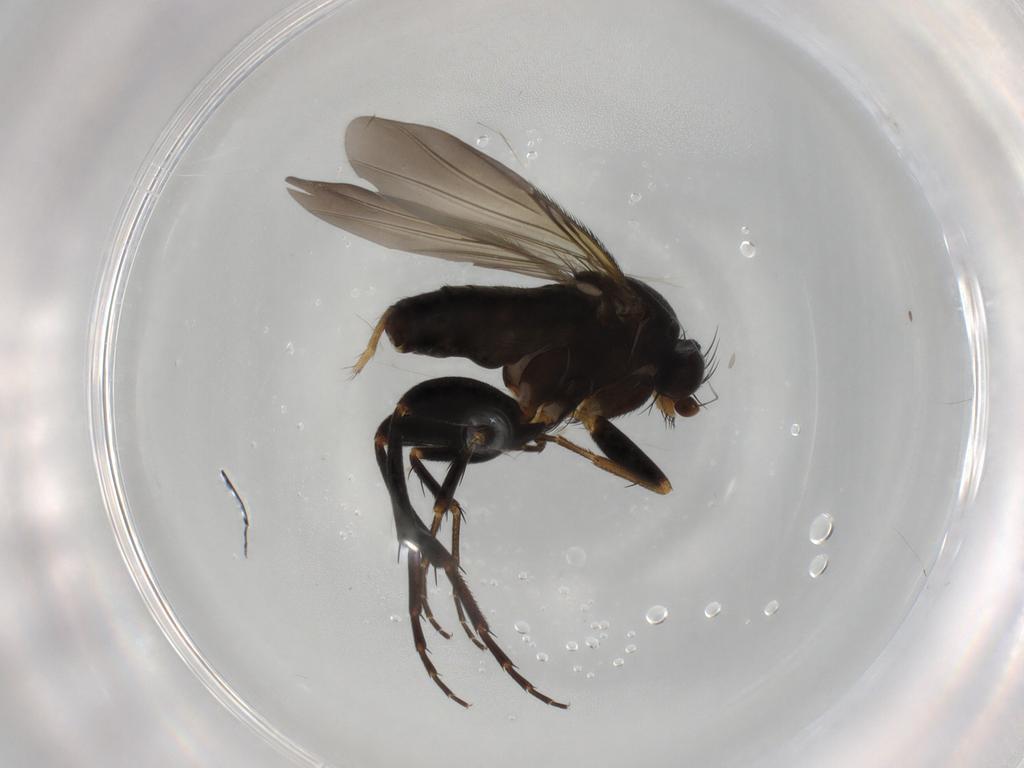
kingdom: Animalia
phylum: Arthropoda
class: Insecta
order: Diptera
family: Phoridae
